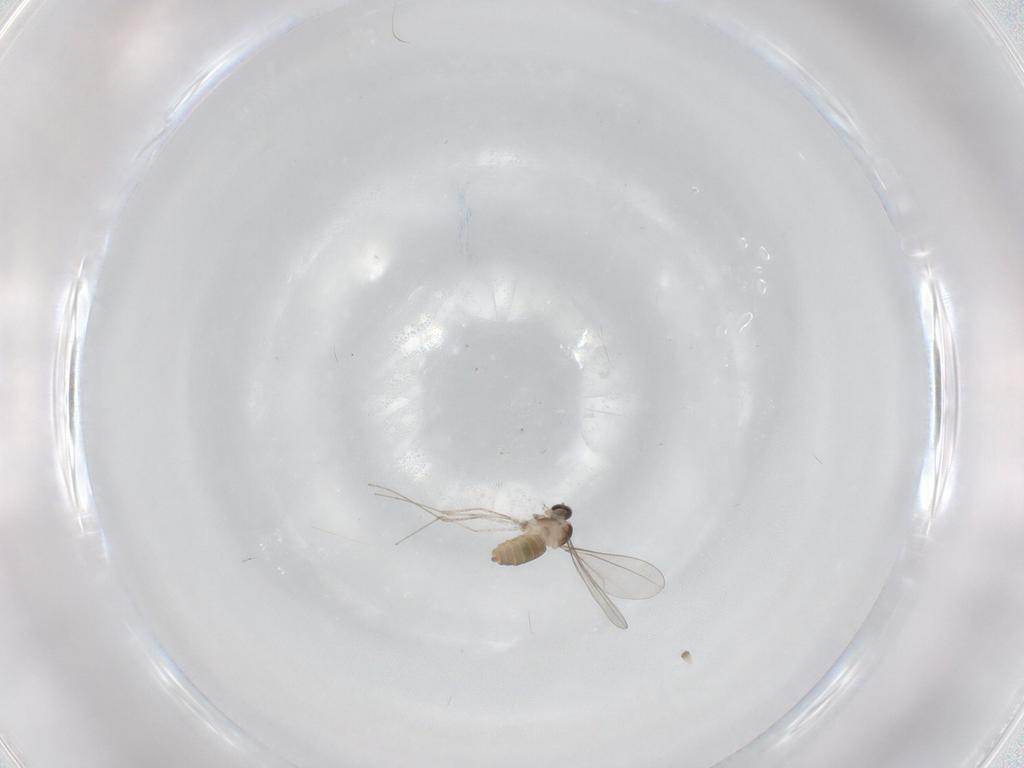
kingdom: Animalia
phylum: Arthropoda
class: Insecta
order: Diptera
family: Cecidomyiidae
